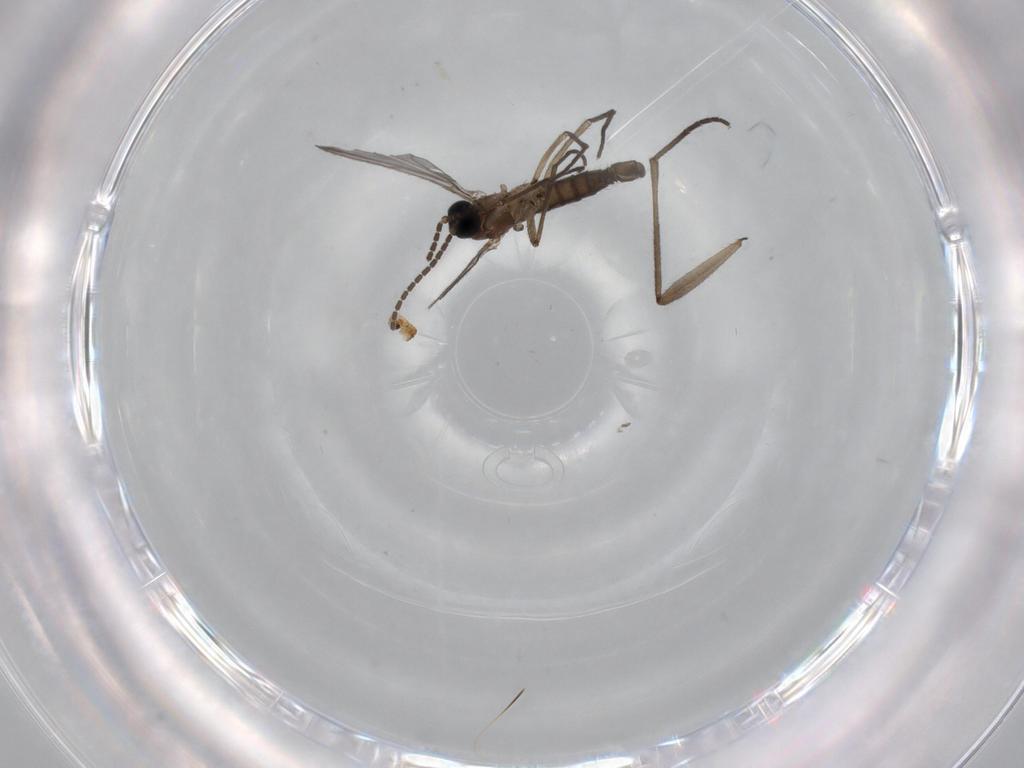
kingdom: Animalia
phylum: Arthropoda
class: Insecta
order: Diptera
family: Sciaridae
